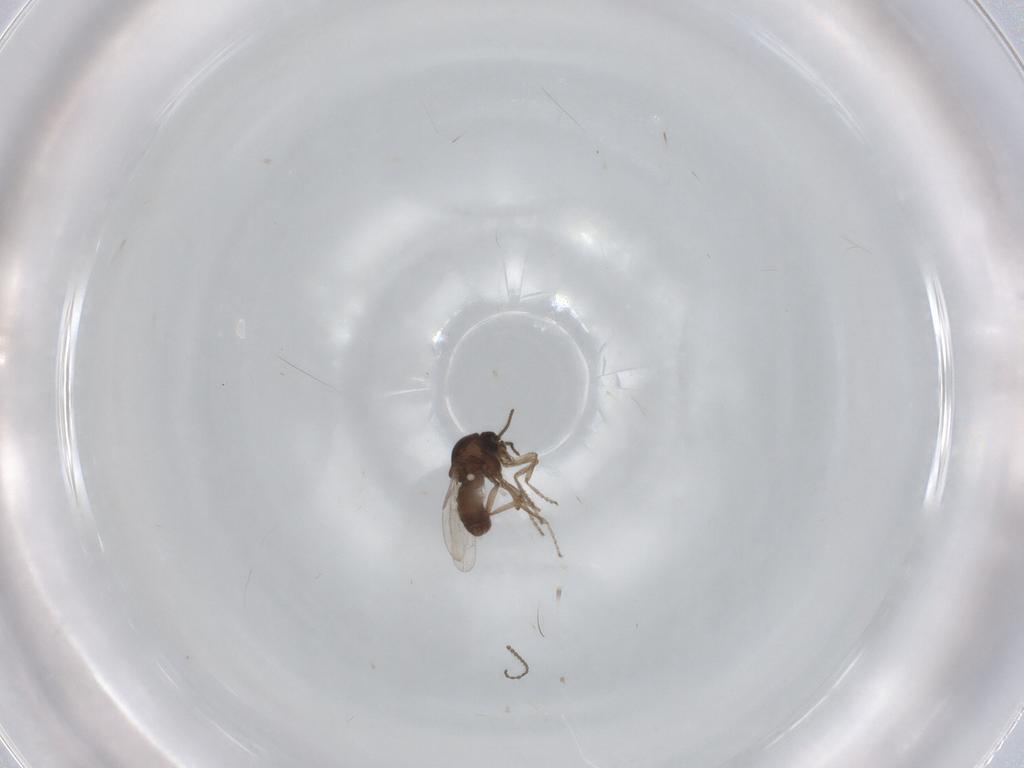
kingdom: Animalia
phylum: Arthropoda
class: Insecta
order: Diptera
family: Ceratopogonidae
